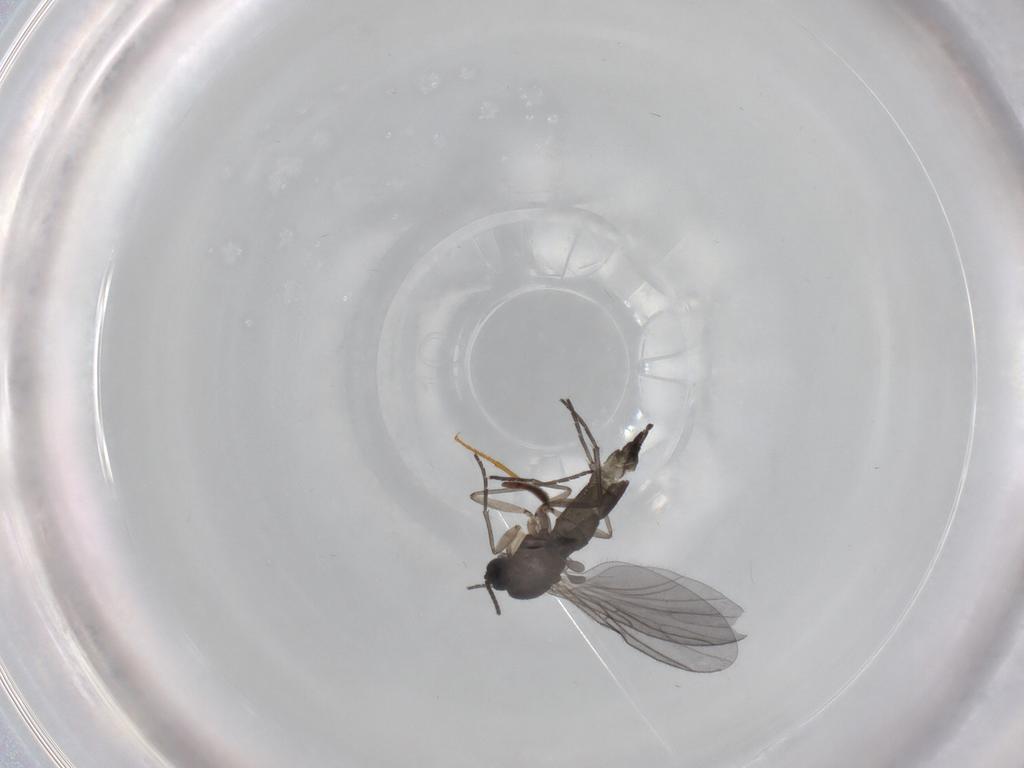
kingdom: Animalia
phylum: Arthropoda
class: Insecta
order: Diptera
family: Sciaridae
